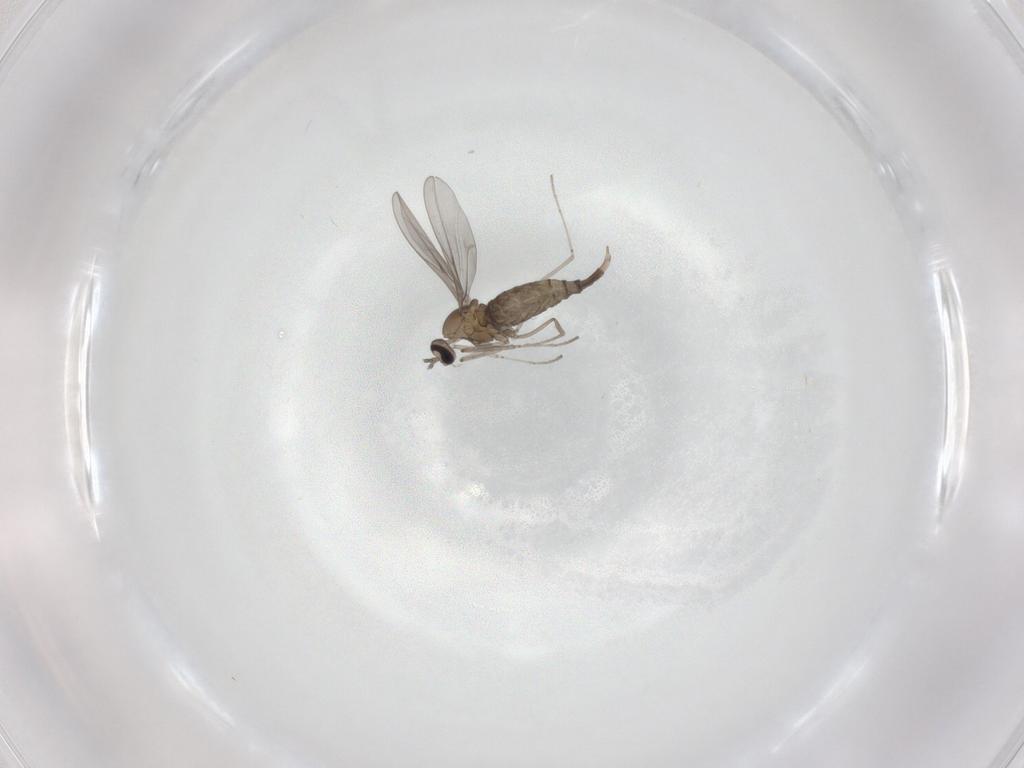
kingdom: Animalia
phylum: Arthropoda
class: Insecta
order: Diptera
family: Cecidomyiidae
